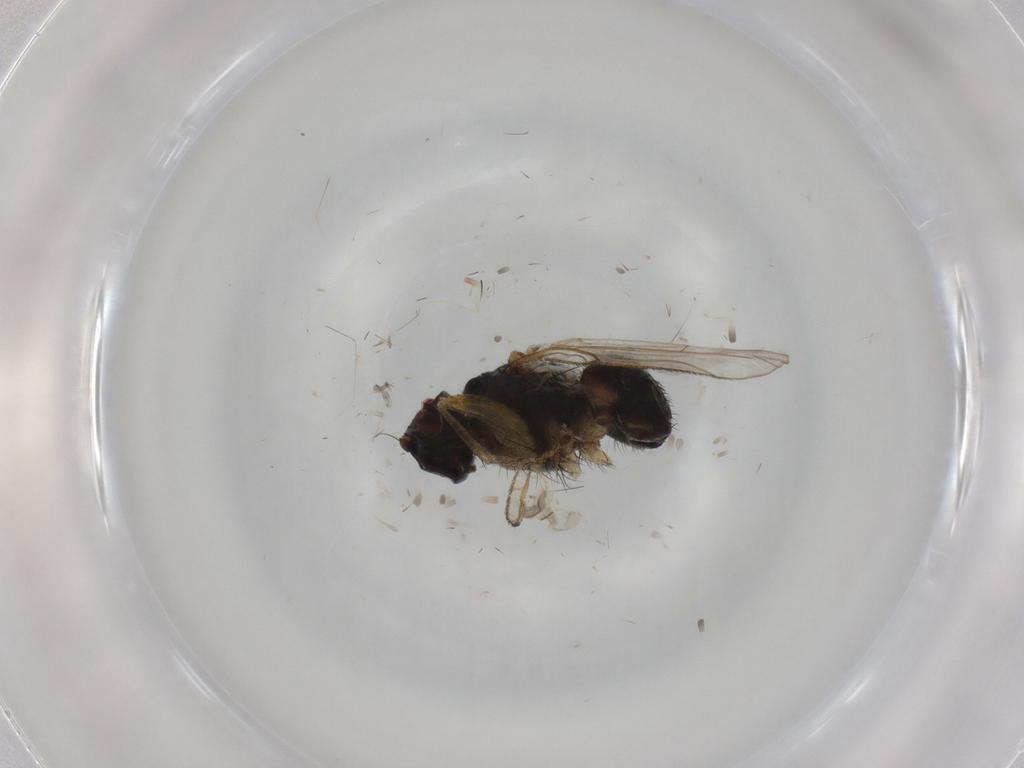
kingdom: Animalia
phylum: Arthropoda
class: Insecta
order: Diptera
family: Muscidae
